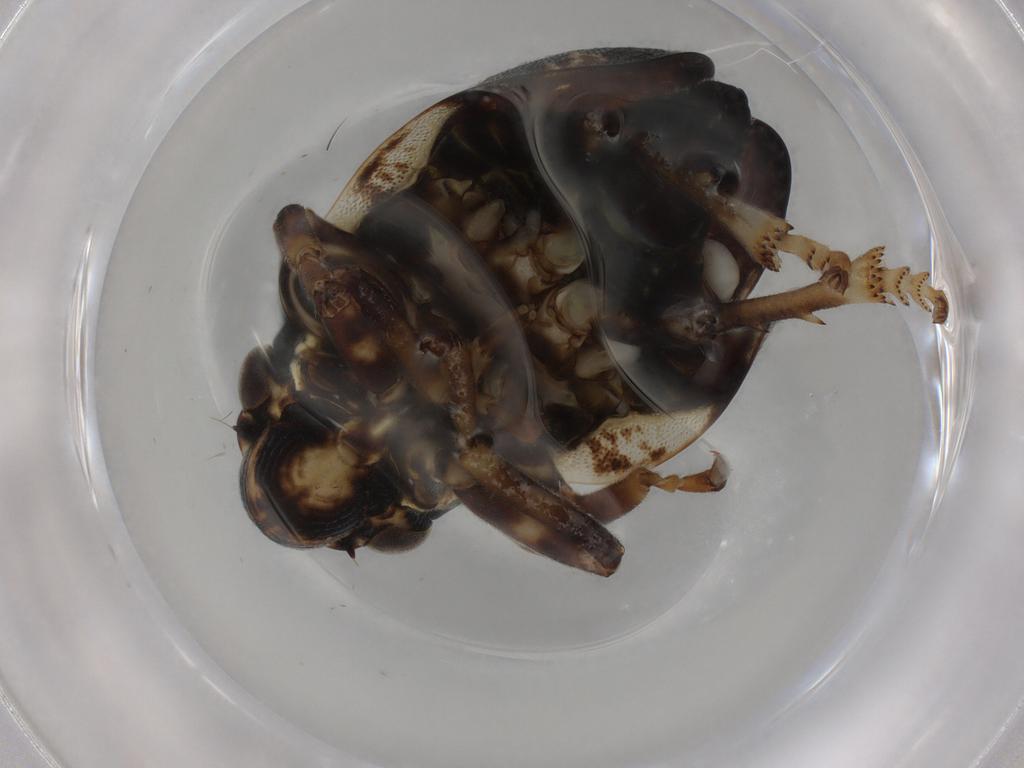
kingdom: Animalia
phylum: Arthropoda
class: Insecta
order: Hemiptera
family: Aphrophoridae
